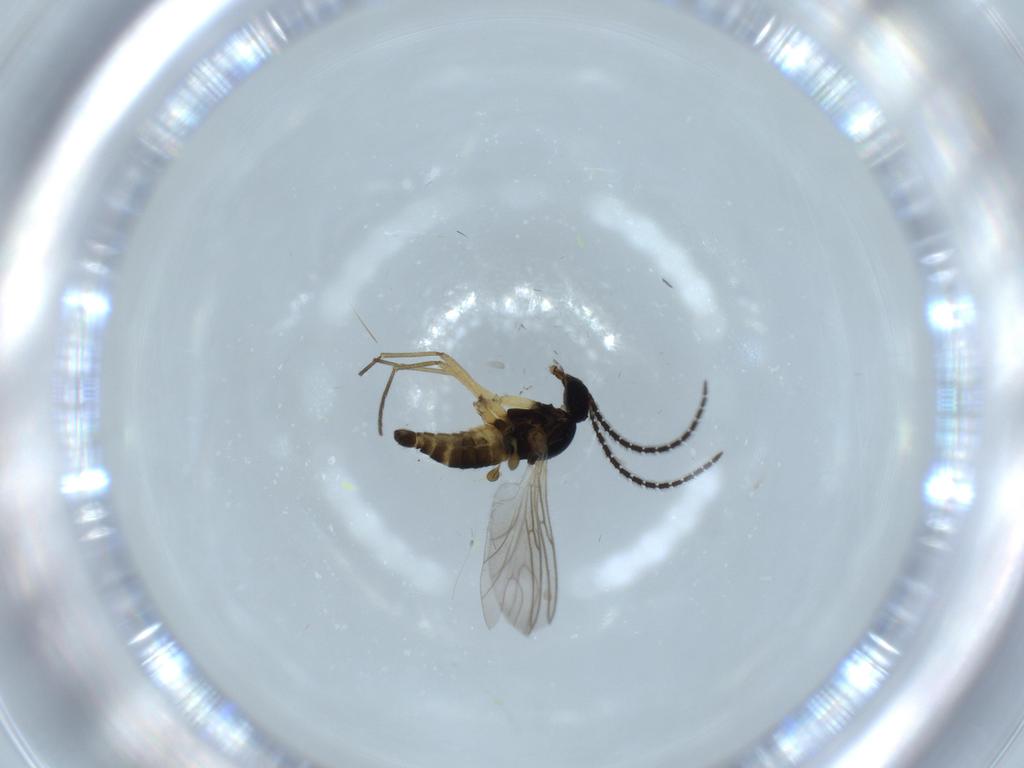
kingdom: Animalia
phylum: Arthropoda
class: Insecta
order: Diptera
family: Sciaridae
